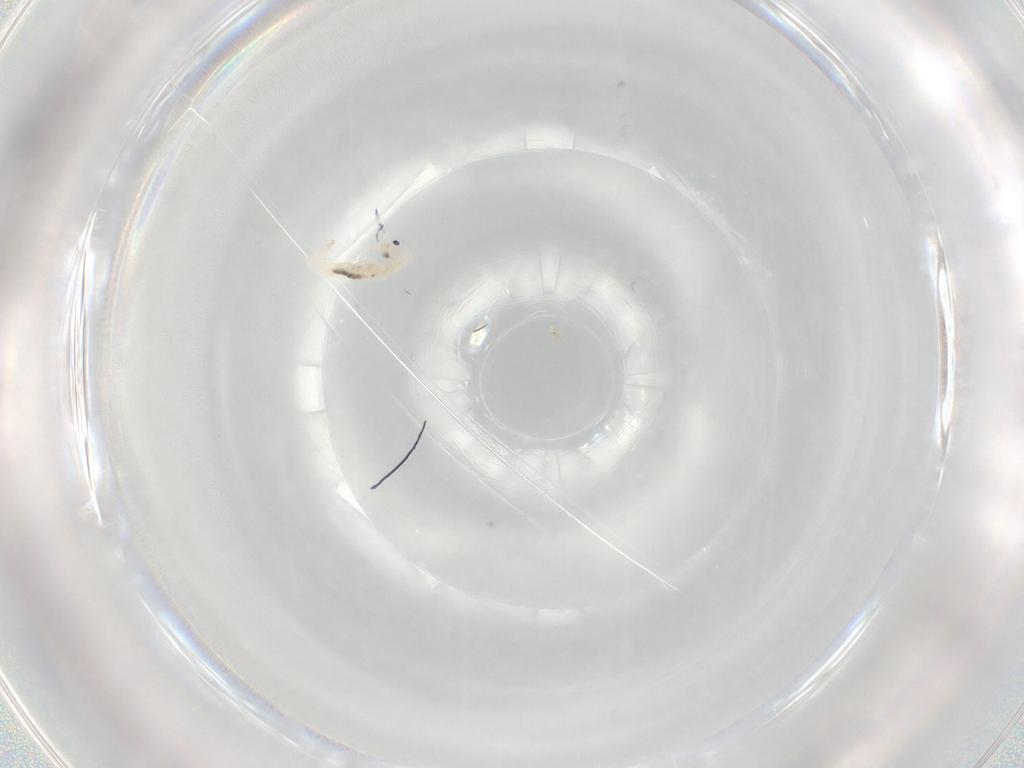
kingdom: Animalia
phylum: Arthropoda
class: Collembola
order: Entomobryomorpha
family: Entomobryidae
